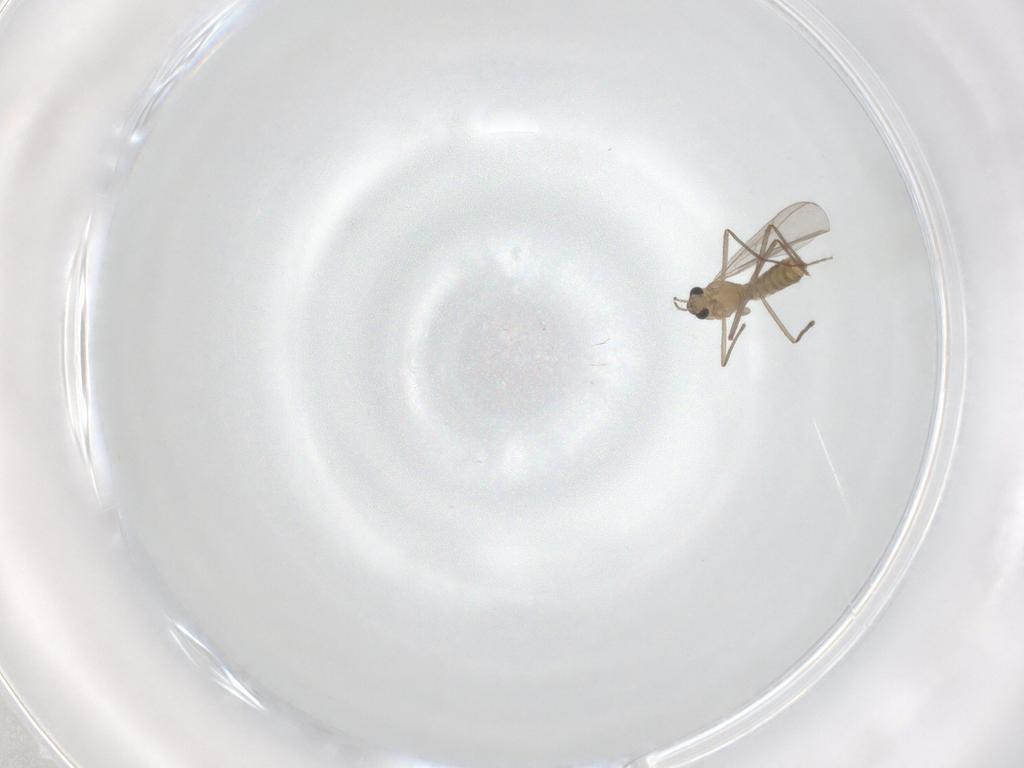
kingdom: Animalia
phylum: Arthropoda
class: Insecta
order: Diptera
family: Chironomidae
